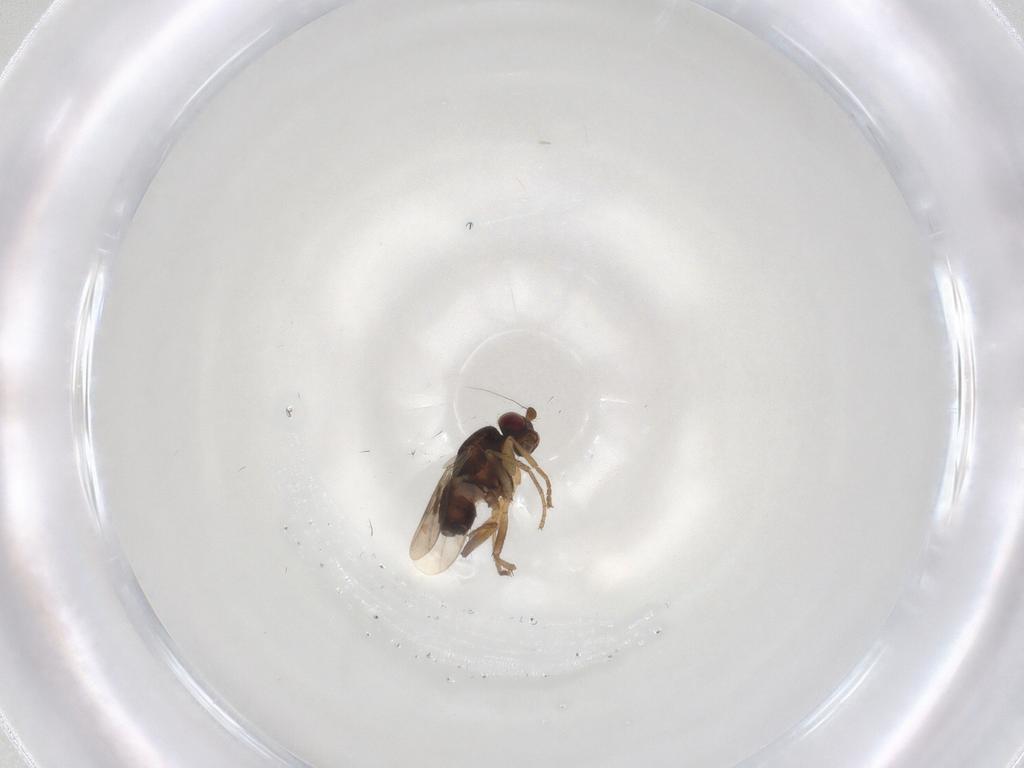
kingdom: Animalia
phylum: Arthropoda
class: Insecta
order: Diptera
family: Sphaeroceridae
